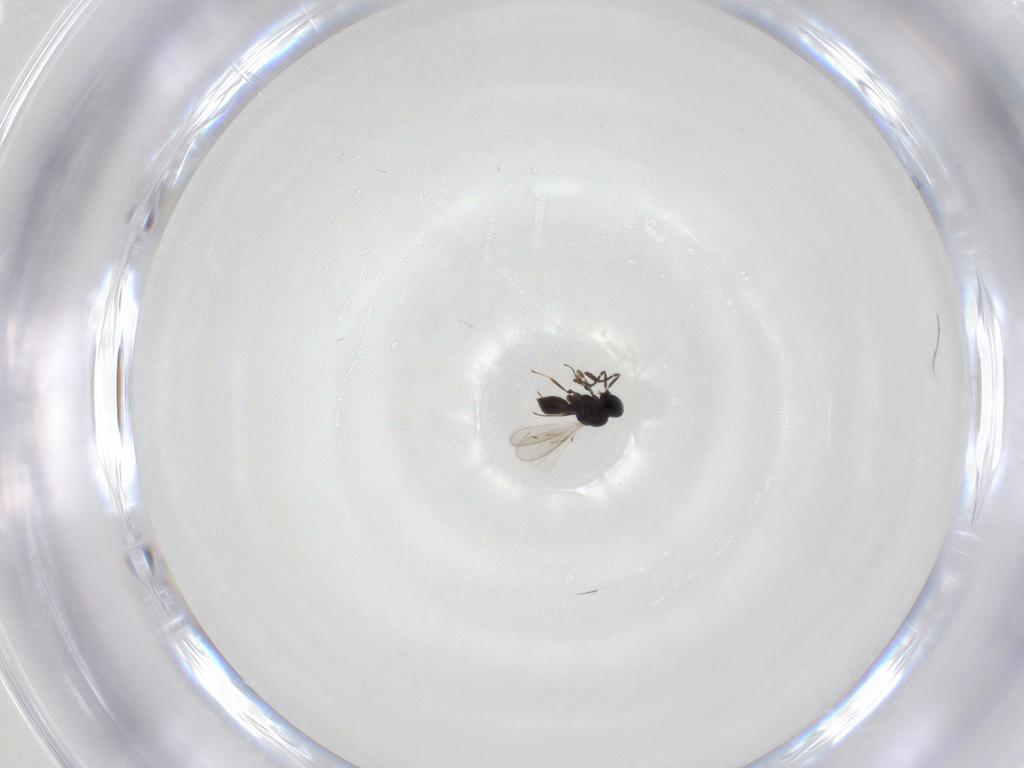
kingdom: Animalia
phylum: Arthropoda
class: Insecta
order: Hymenoptera
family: Scelionidae
